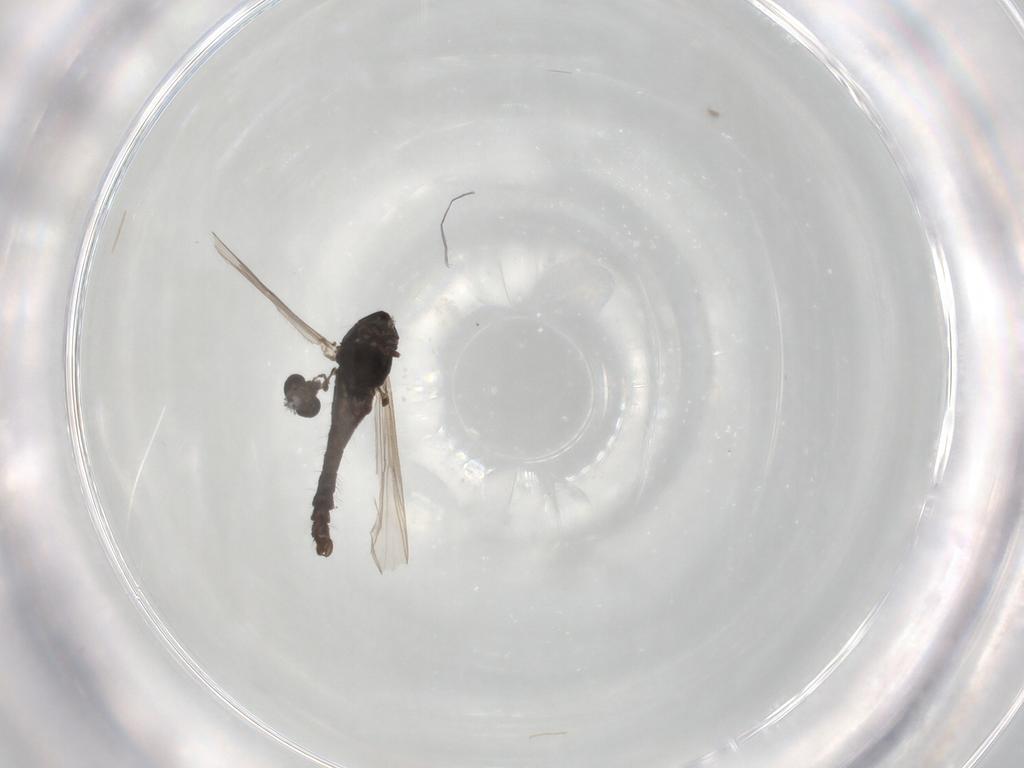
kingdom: Animalia
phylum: Arthropoda
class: Insecta
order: Diptera
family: Chironomidae
